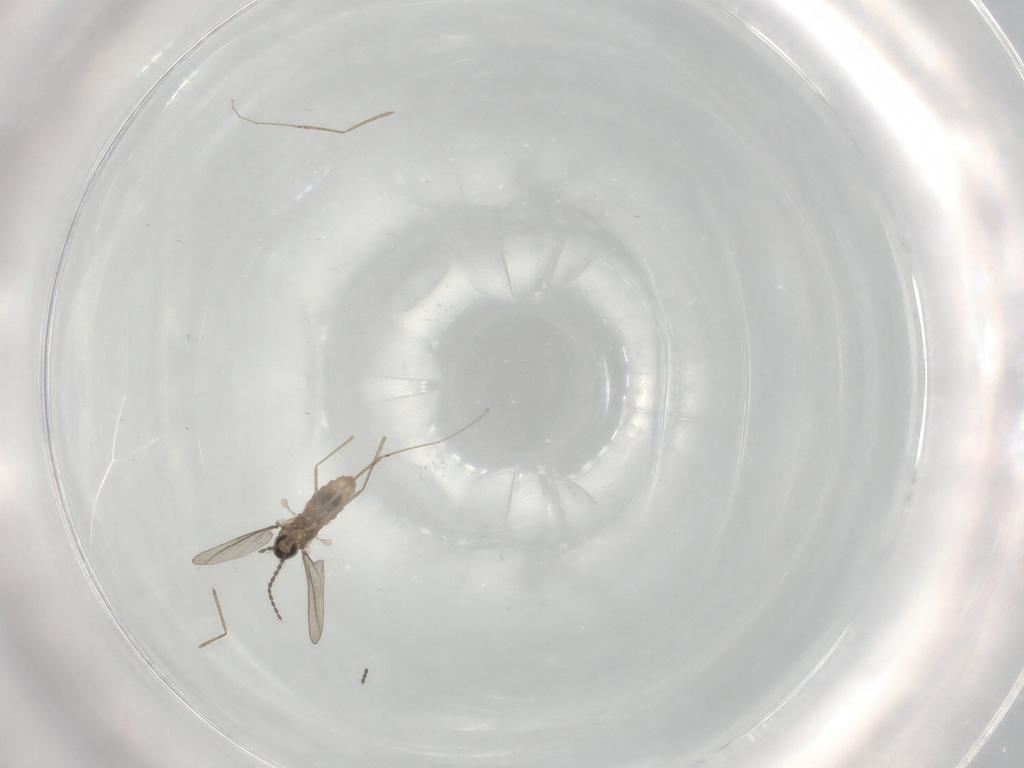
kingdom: Animalia
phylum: Arthropoda
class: Insecta
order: Diptera
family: Cecidomyiidae
